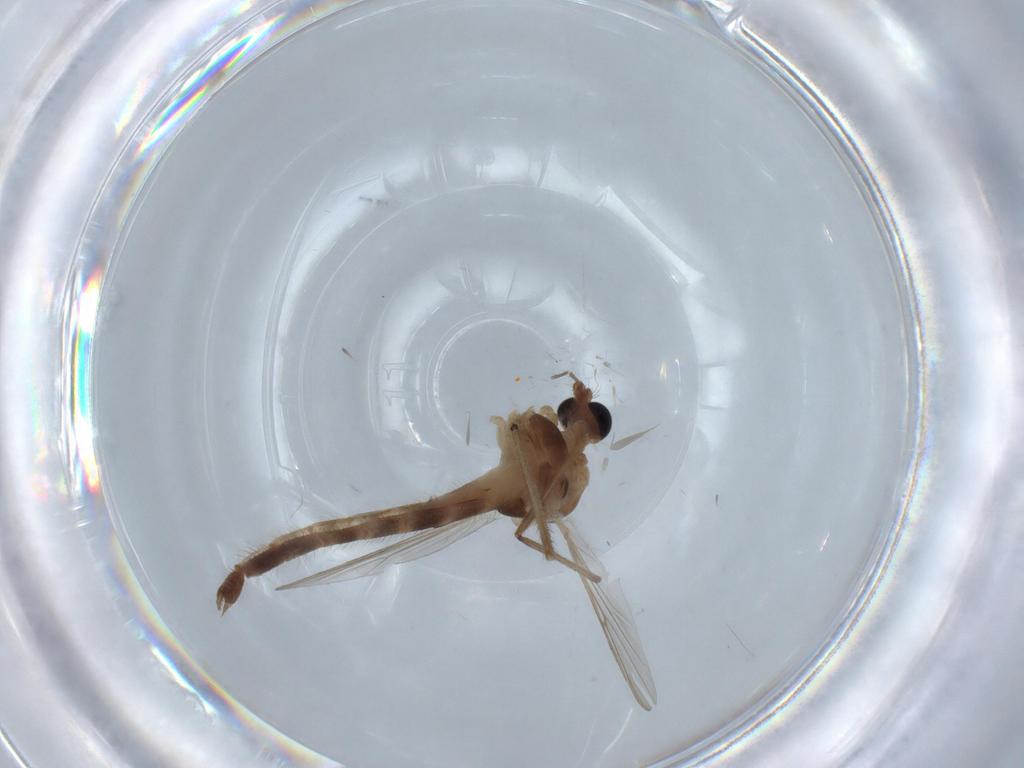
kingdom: Animalia
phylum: Arthropoda
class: Insecta
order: Diptera
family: Chironomidae
